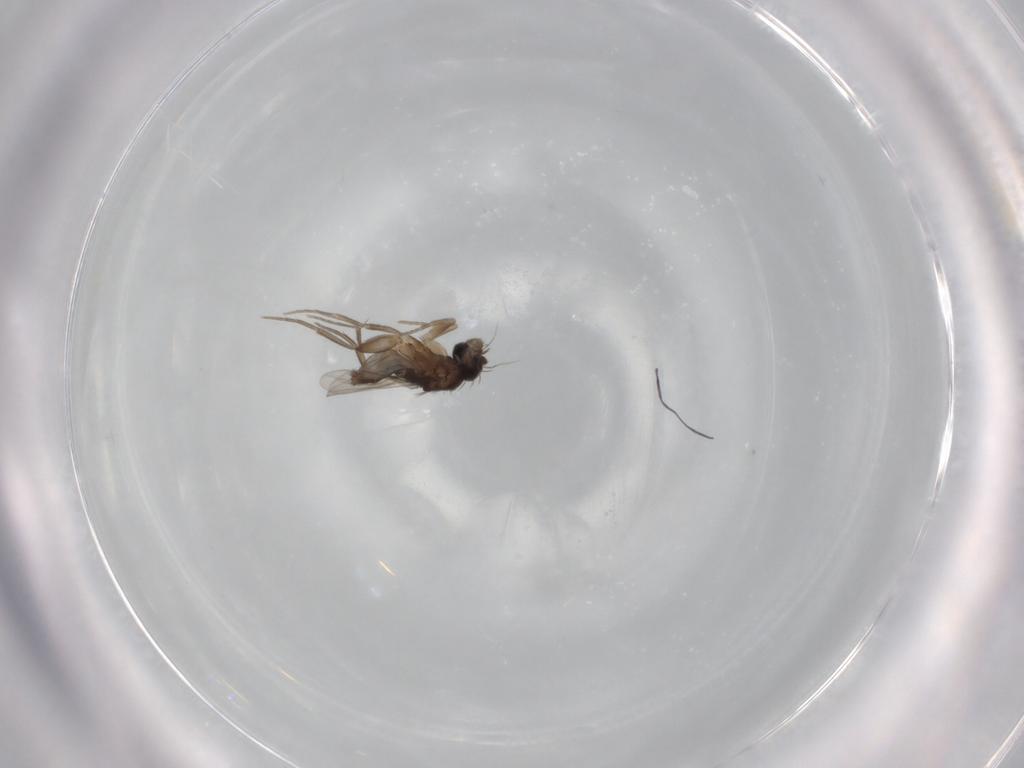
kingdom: Animalia
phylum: Arthropoda
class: Insecta
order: Diptera
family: Phoridae
